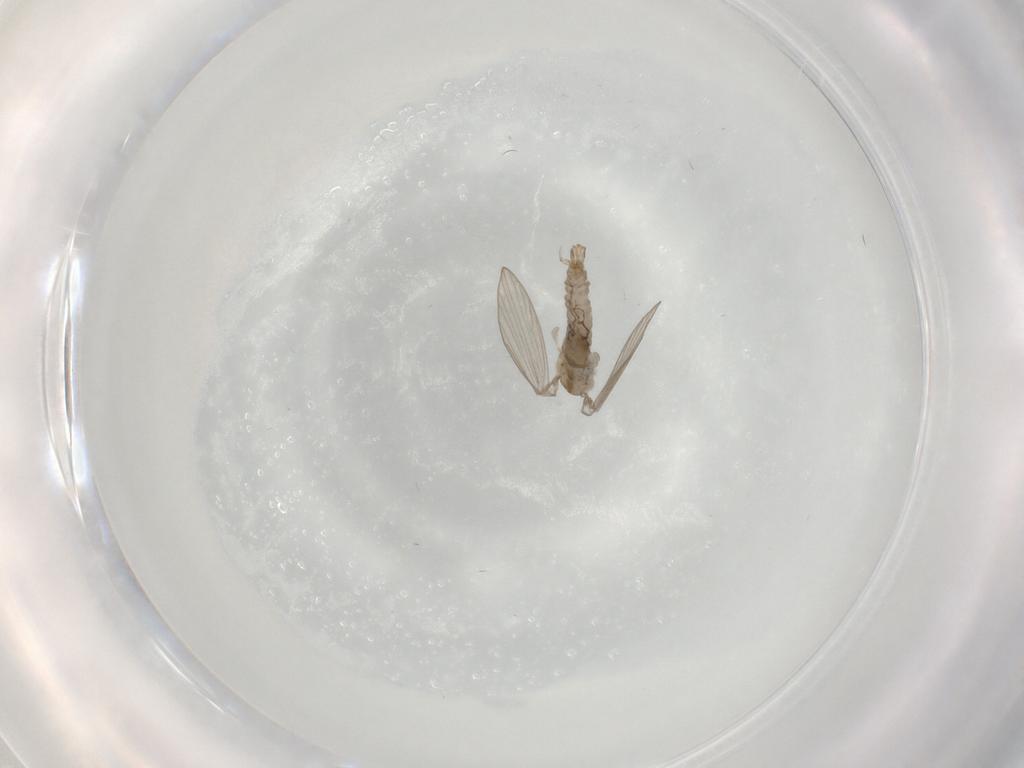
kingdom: Animalia
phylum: Arthropoda
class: Insecta
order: Diptera
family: Psychodidae
